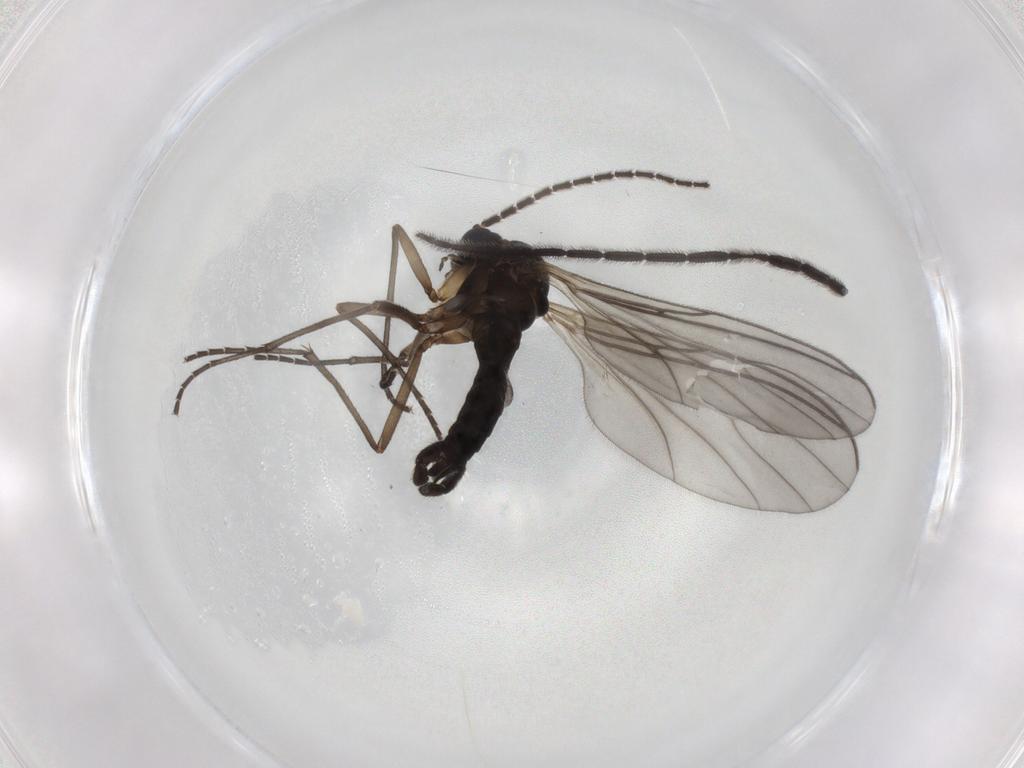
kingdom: Animalia
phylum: Arthropoda
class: Insecta
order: Diptera
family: Sciaridae
